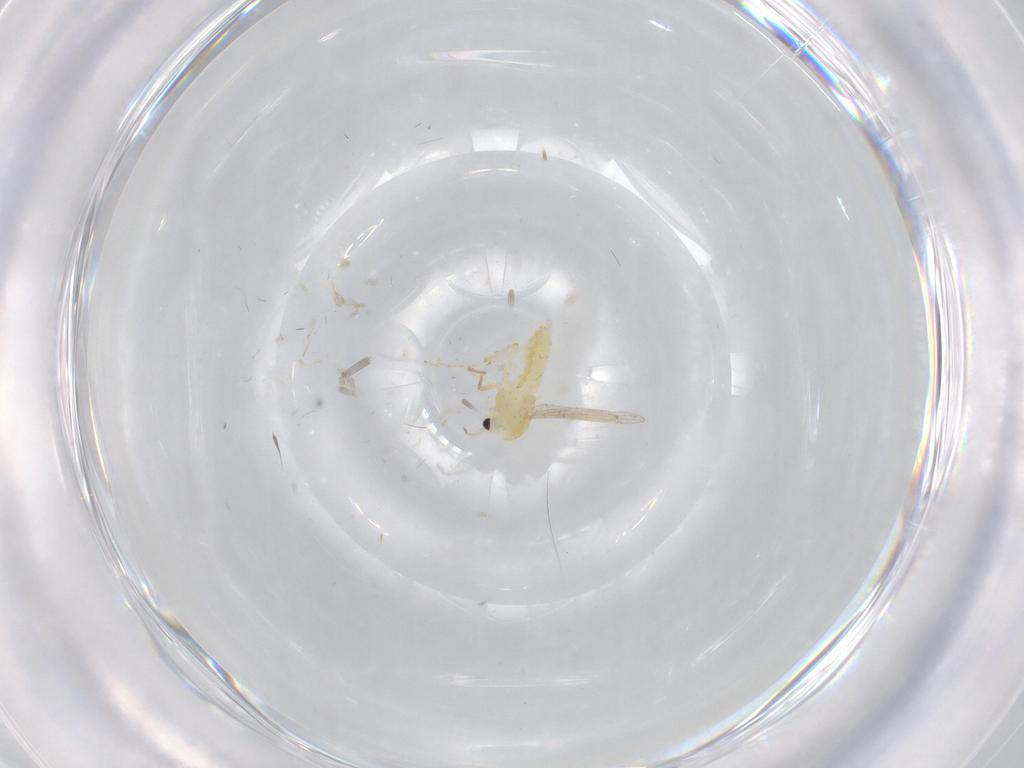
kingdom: Animalia
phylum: Arthropoda
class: Insecta
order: Diptera
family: Chironomidae
